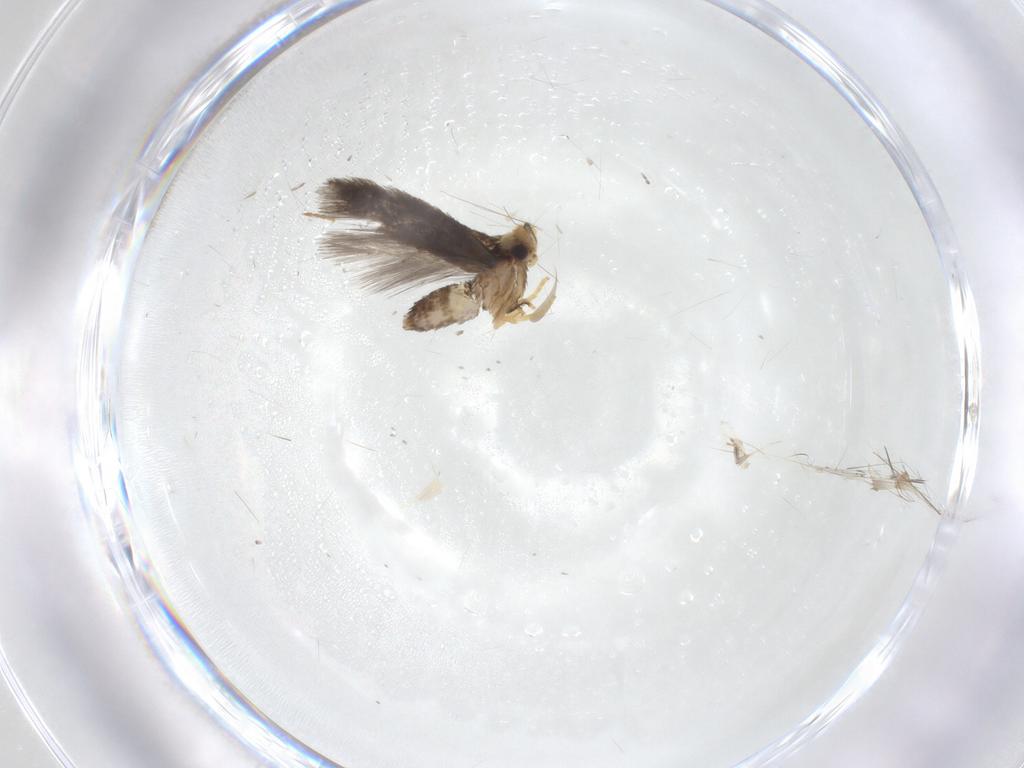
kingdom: Animalia
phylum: Arthropoda
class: Insecta
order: Lepidoptera
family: Nepticulidae
